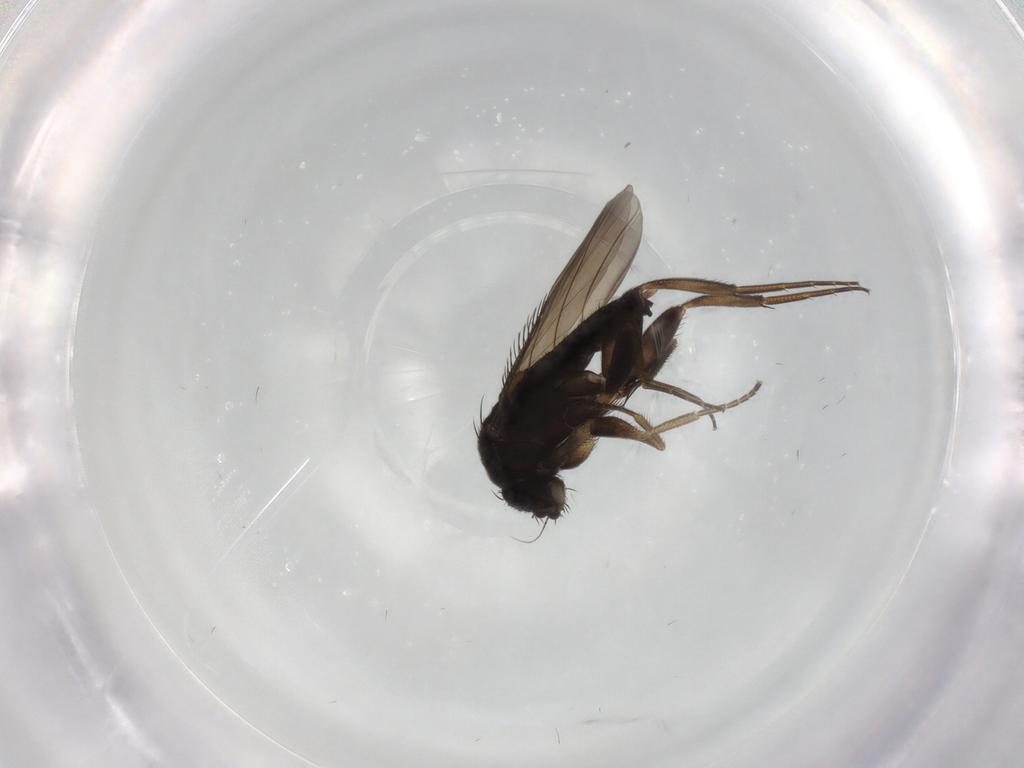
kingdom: Animalia
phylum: Arthropoda
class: Insecta
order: Diptera
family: Phoridae
